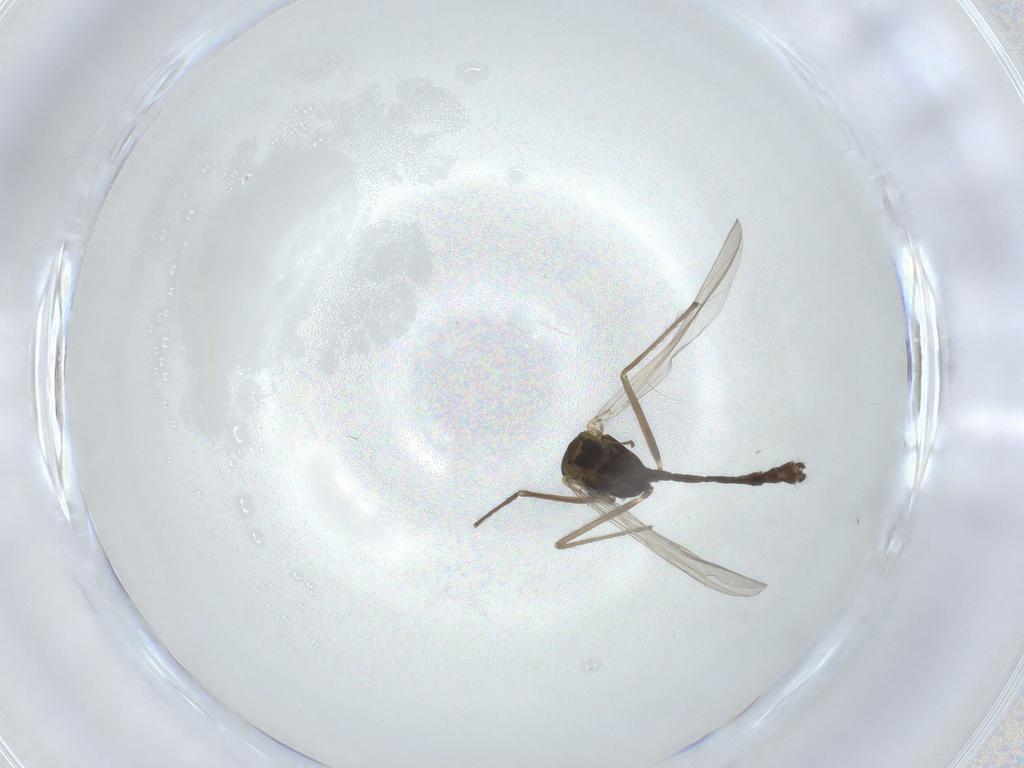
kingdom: Animalia
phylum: Arthropoda
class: Insecta
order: Diptera
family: Chironomidae
